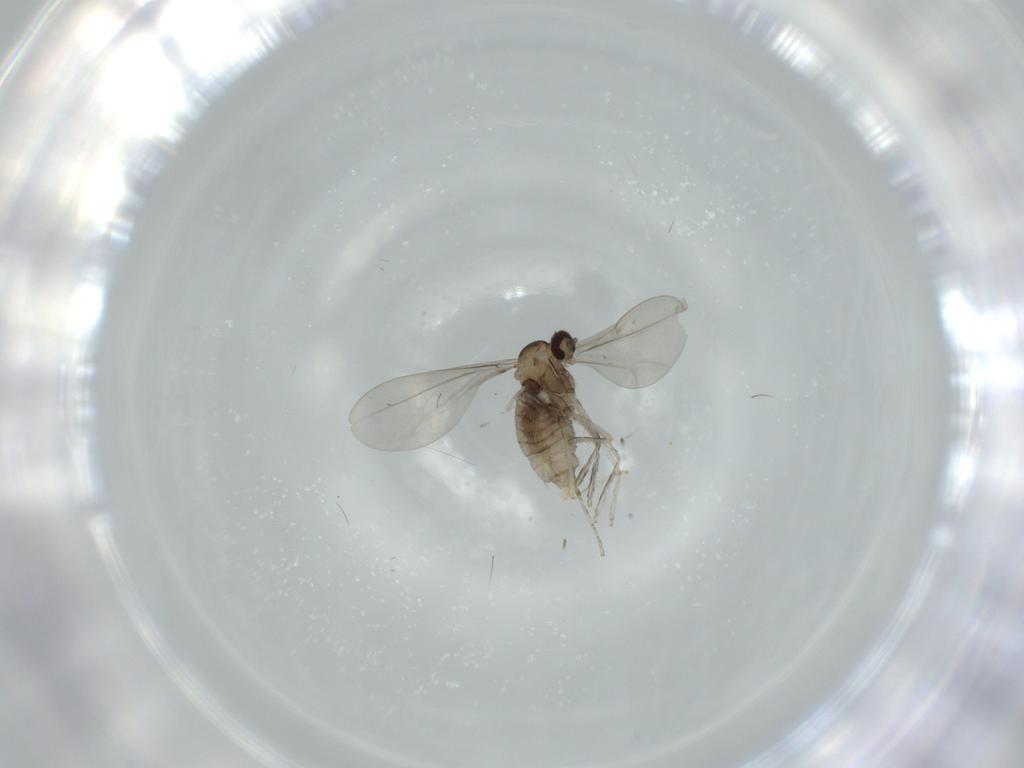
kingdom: Animalia
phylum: Arthropoda
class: Insecta
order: Diptera
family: Cecidomyiidae
